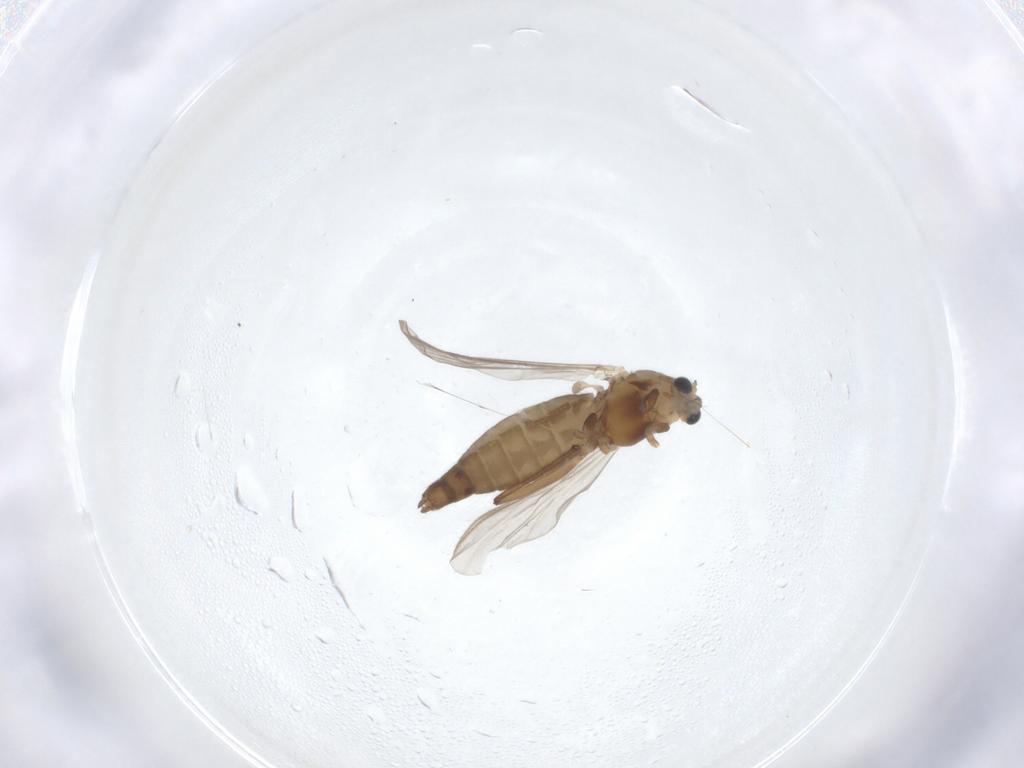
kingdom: Animalia
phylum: Arthropoda
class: Insecta
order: Diptera
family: Chironomidae
